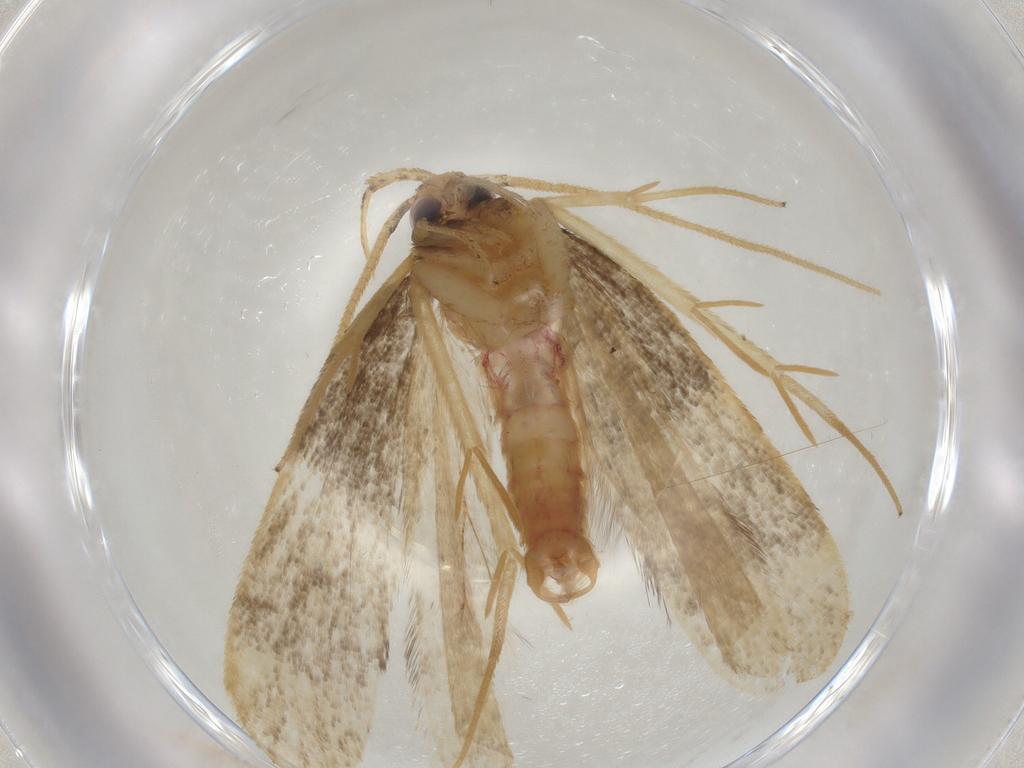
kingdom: Animalia
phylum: Arthropoda
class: Insecta
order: Lepidoptera
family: Lecithoceridae
